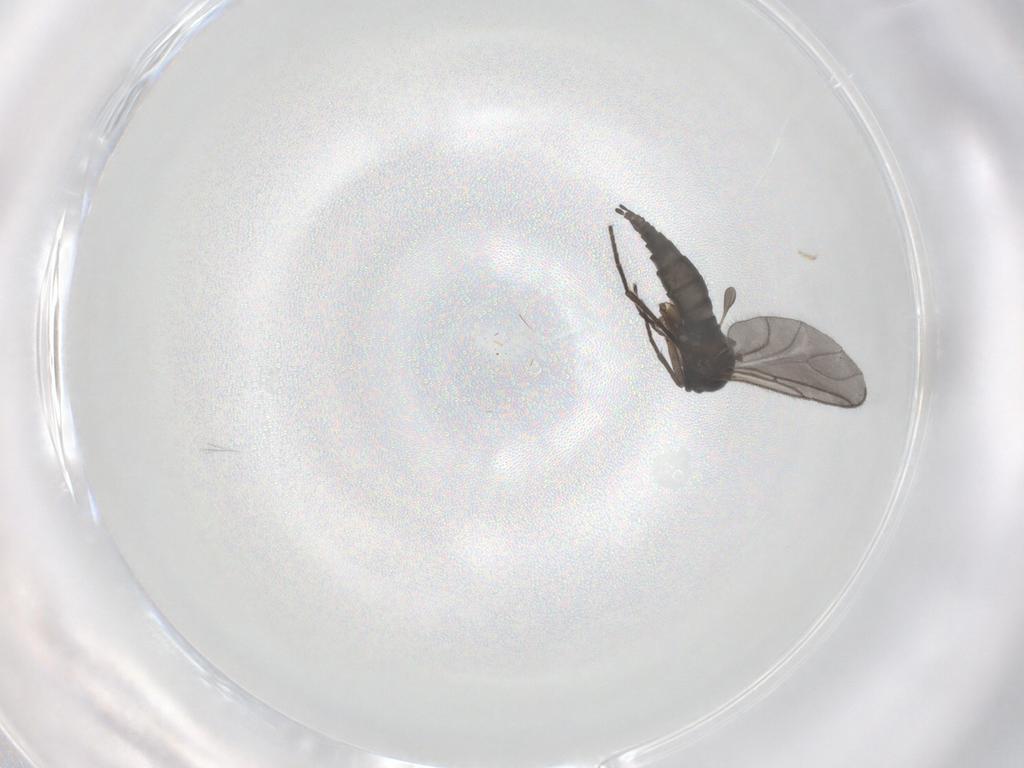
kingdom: Animalia
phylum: Arthropoda
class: Insecta
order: Diptera
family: Sciaridae
